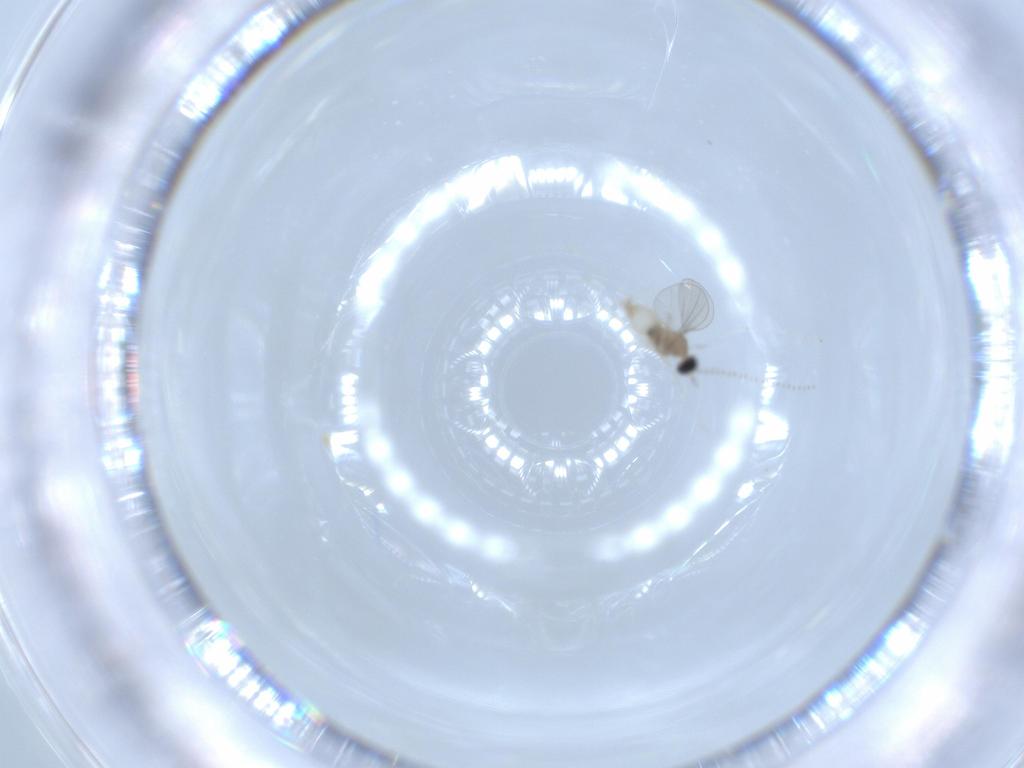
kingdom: Animalia
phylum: Arthropoda
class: Insecta
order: Diptera
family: Cecidomyiidae
